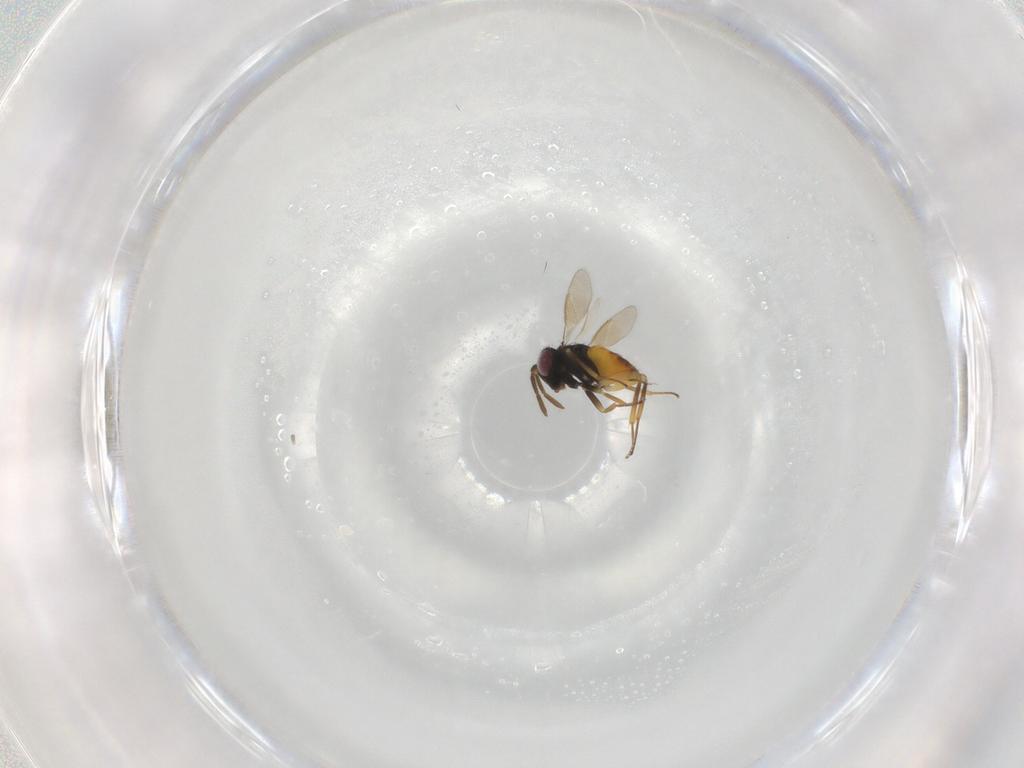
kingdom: Animalia
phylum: Arthropoda
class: Insecta
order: Hymenoptera
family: Aphelinidae
